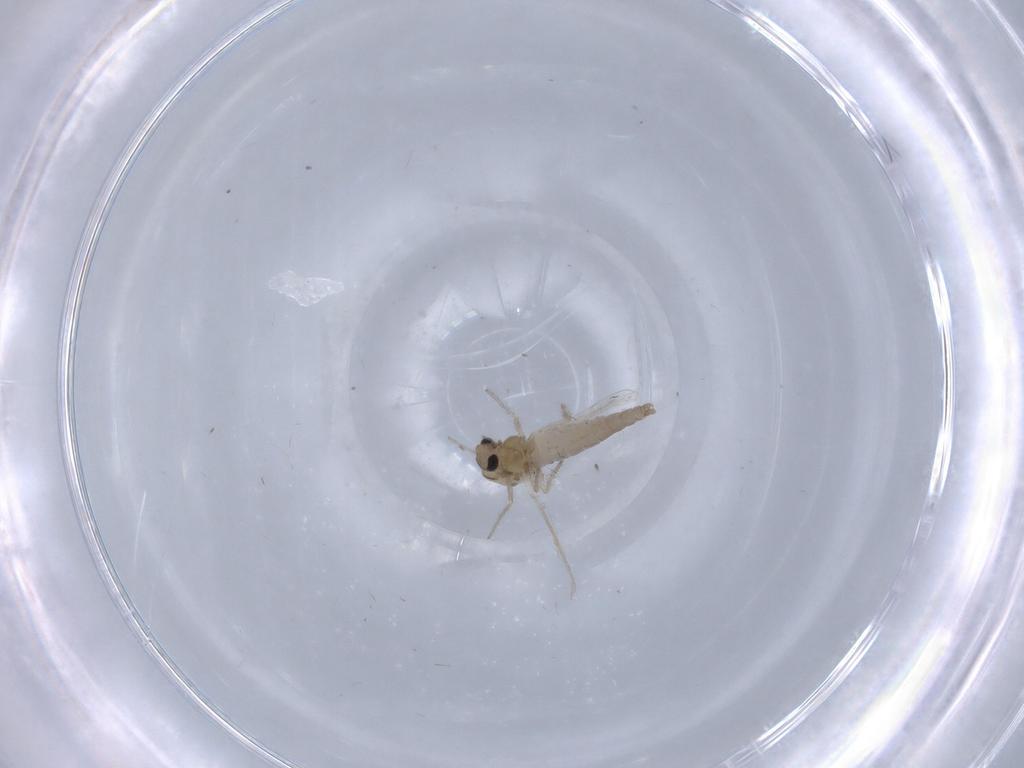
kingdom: Animalia
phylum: Arthropoda
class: Insecta
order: Diptera
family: Chironomidae
